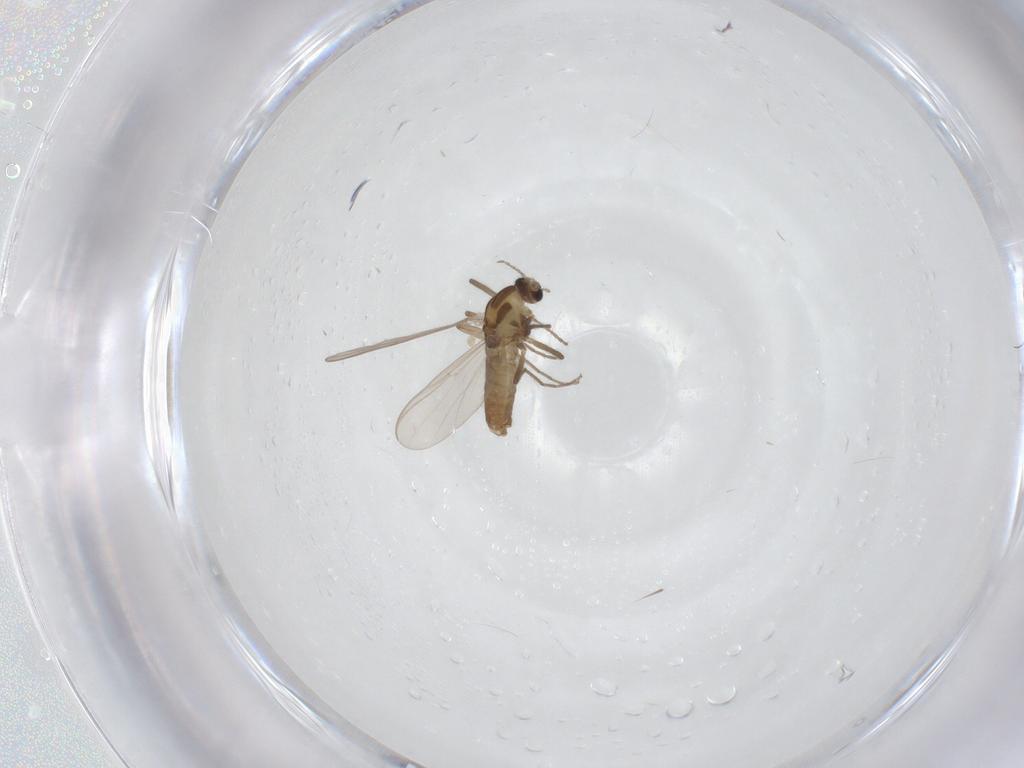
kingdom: Animalia
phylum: Arthropoda
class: Insecta
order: Diptera
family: Chironomidae
